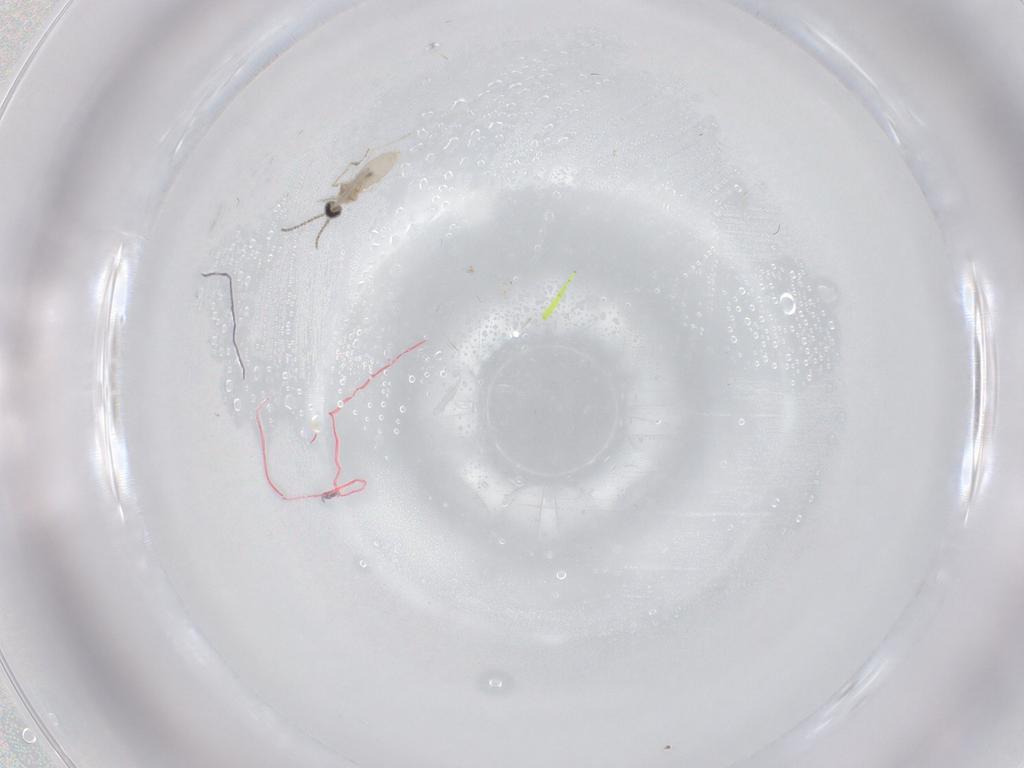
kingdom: Animalia
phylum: Arthropoda
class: Insecta
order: Diptera
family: Cecidomyiidae
